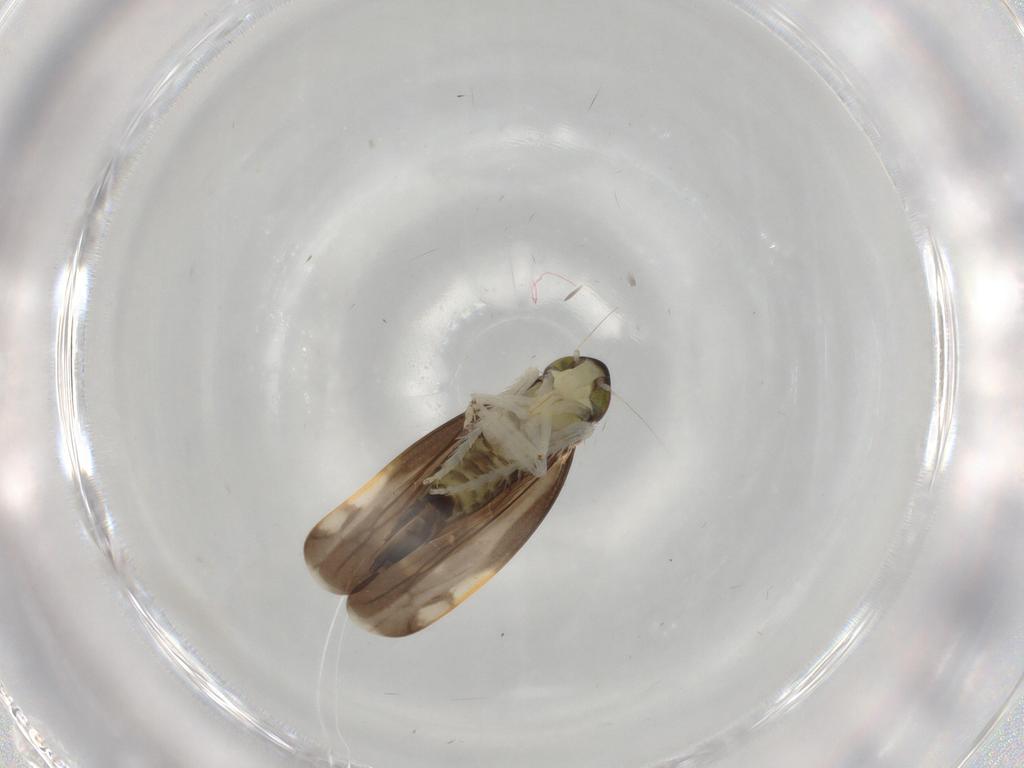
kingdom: Animalia
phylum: Arthropoda
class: Insecta
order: Hemiptera
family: Cicadellidae
